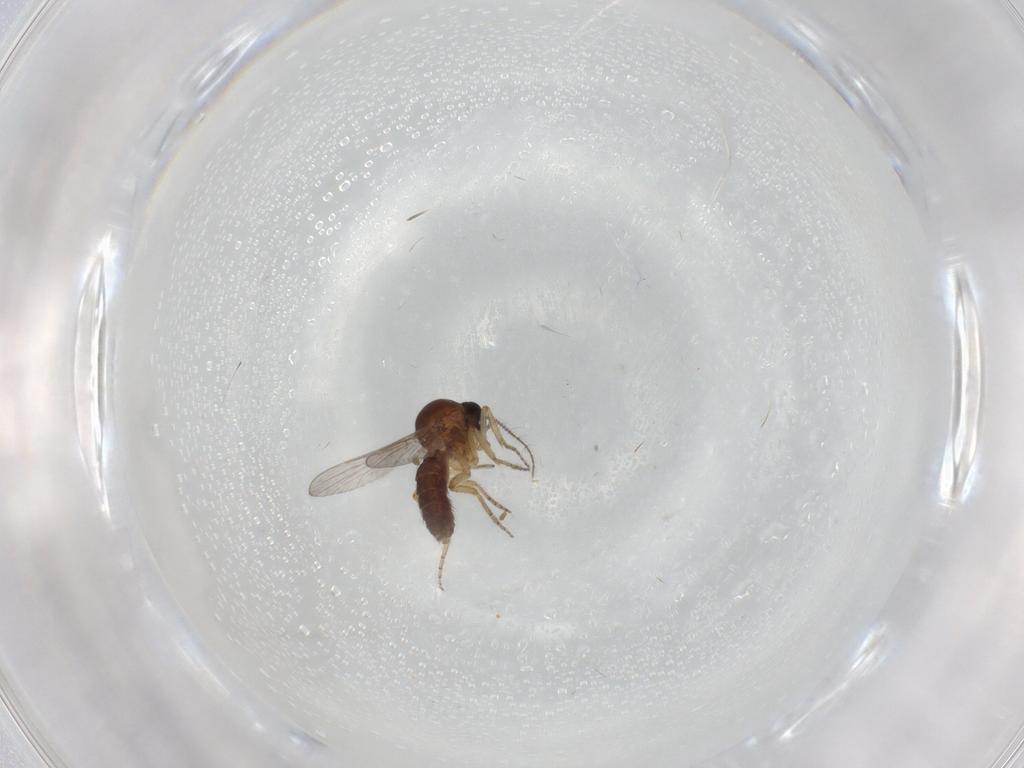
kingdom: Animalia
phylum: Arthropoda
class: Insecta
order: Diptera
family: Ceratopogonidae
